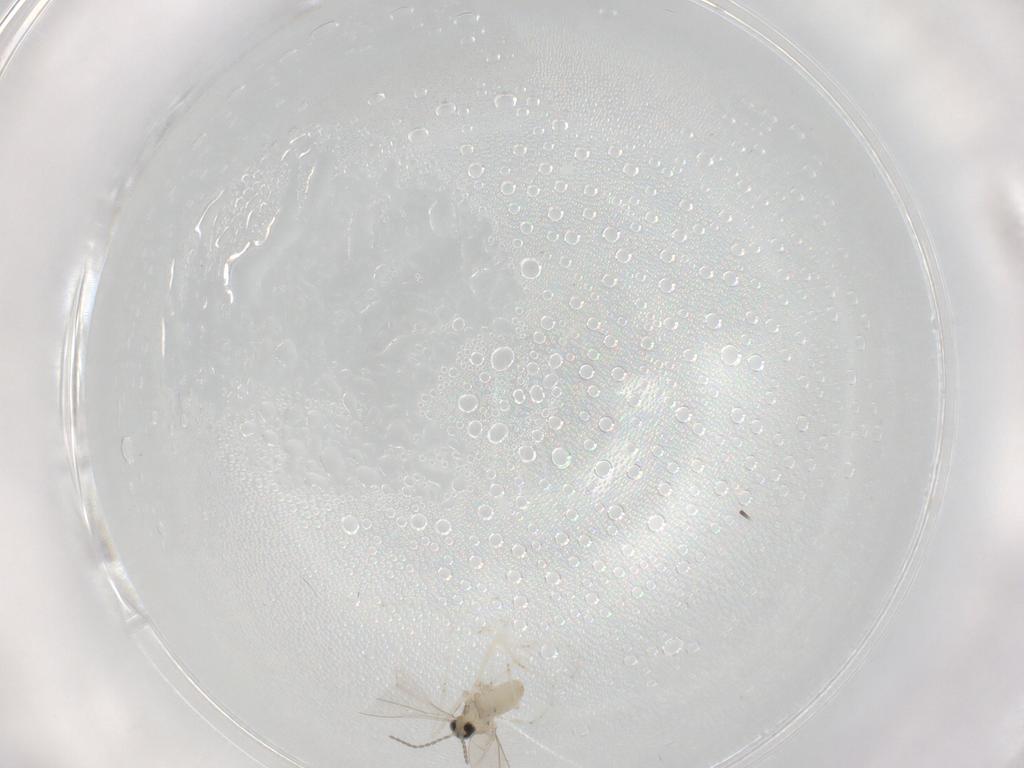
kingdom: Animalia
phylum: Arthropoda
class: Insecta
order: Diptera
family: Cecidomyiidae
